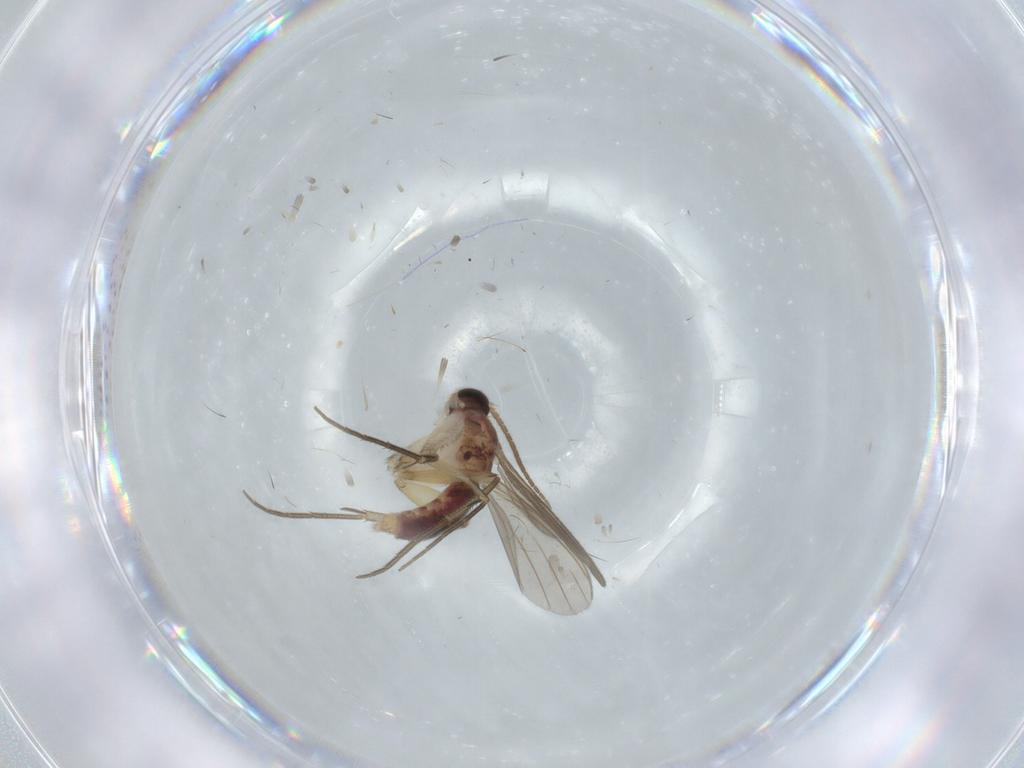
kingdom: Animalia
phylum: Arthropoda
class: Insecta
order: Diptera
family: Mycetophilidae
